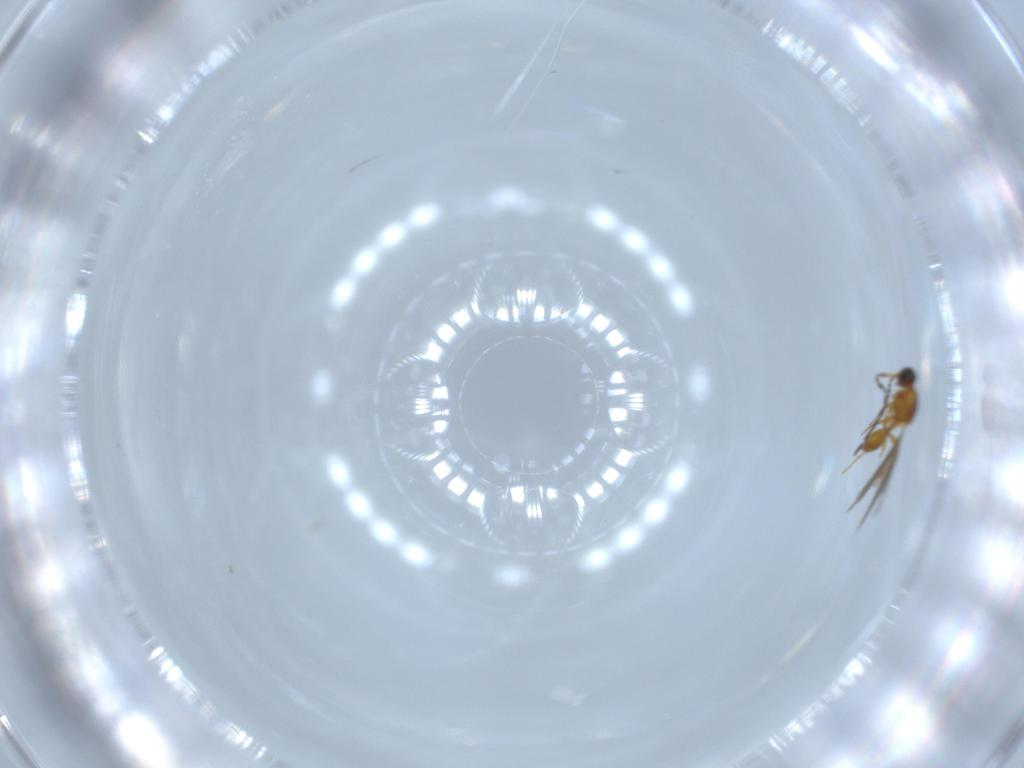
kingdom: Animalia
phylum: Arthropoda
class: Insecta
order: Hymenoptera
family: Platygastridae
